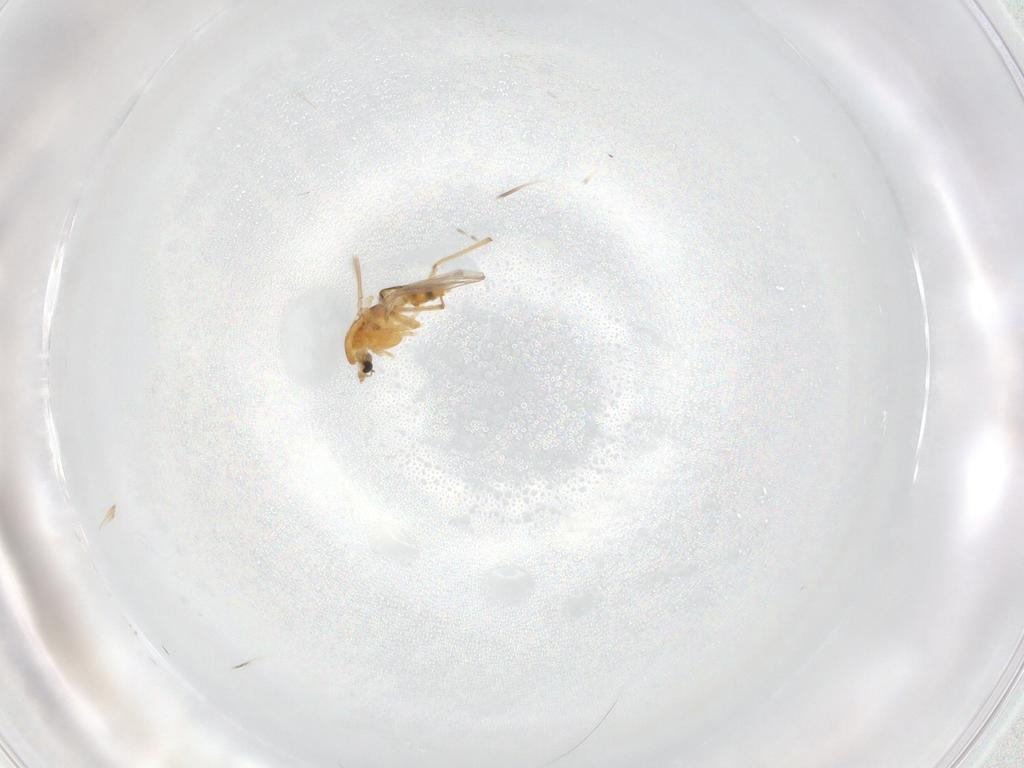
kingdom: Animalia
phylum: Arthropoda
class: Insecta
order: Diptera
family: Chironomidae
